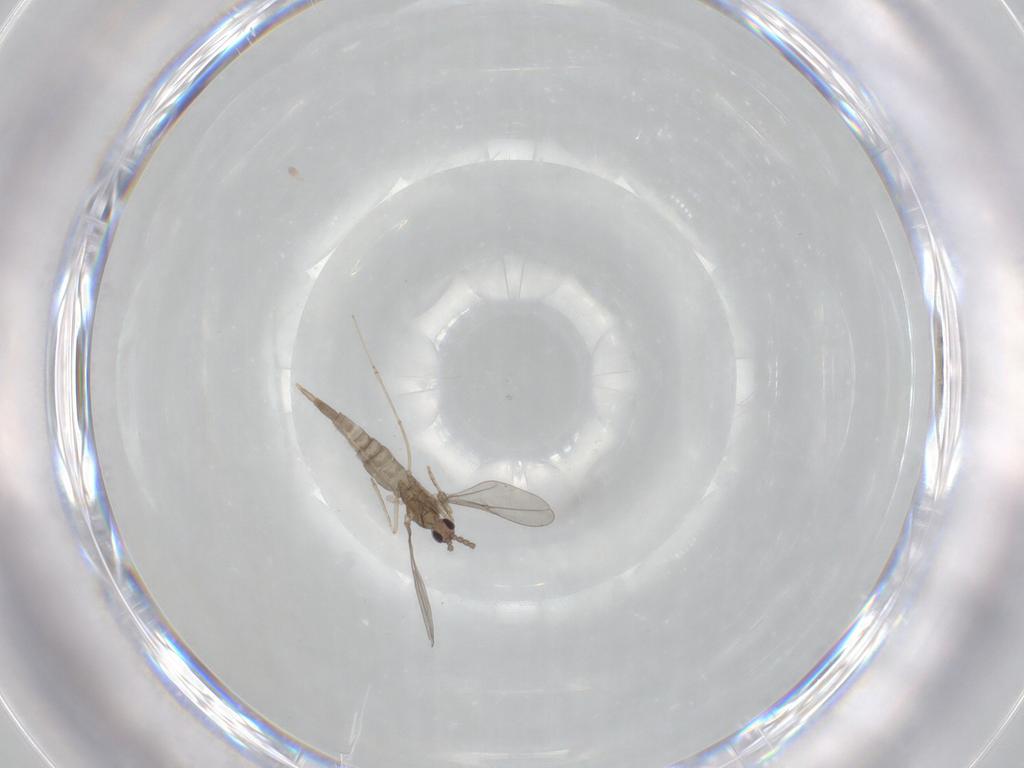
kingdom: Animalia
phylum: Arthropoda
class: Insecta
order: Diptera
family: Cecidomyiidae
